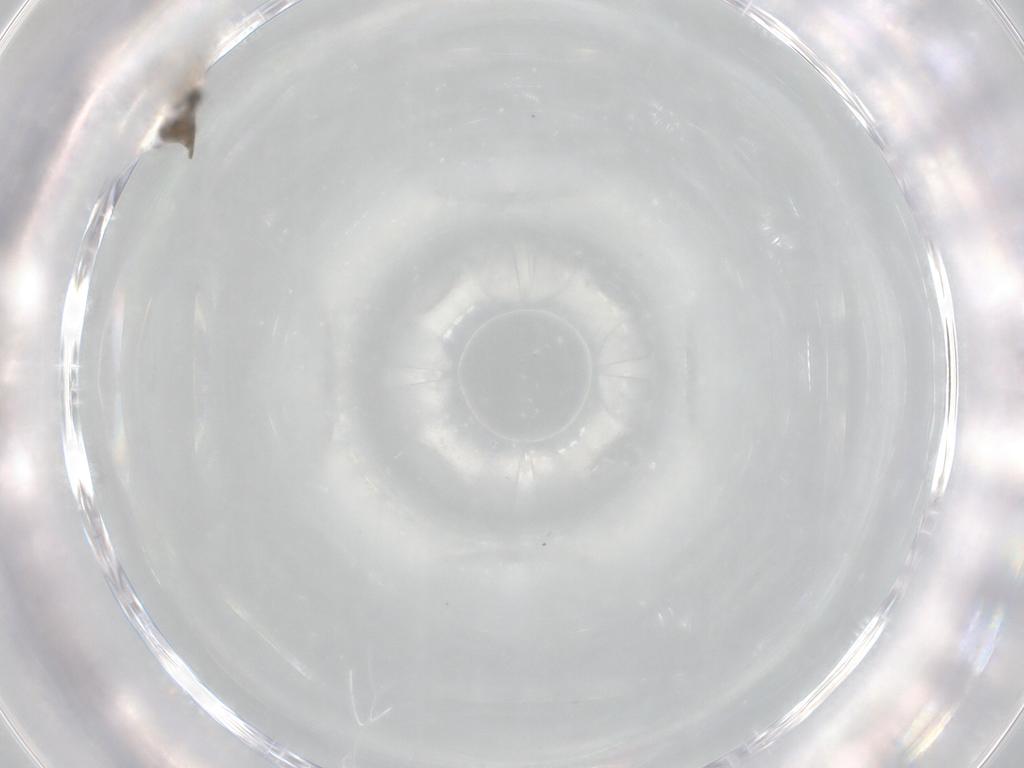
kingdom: Animalia
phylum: Arthropoda
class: Insecta
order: Diptera
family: Cecidomyiidae
